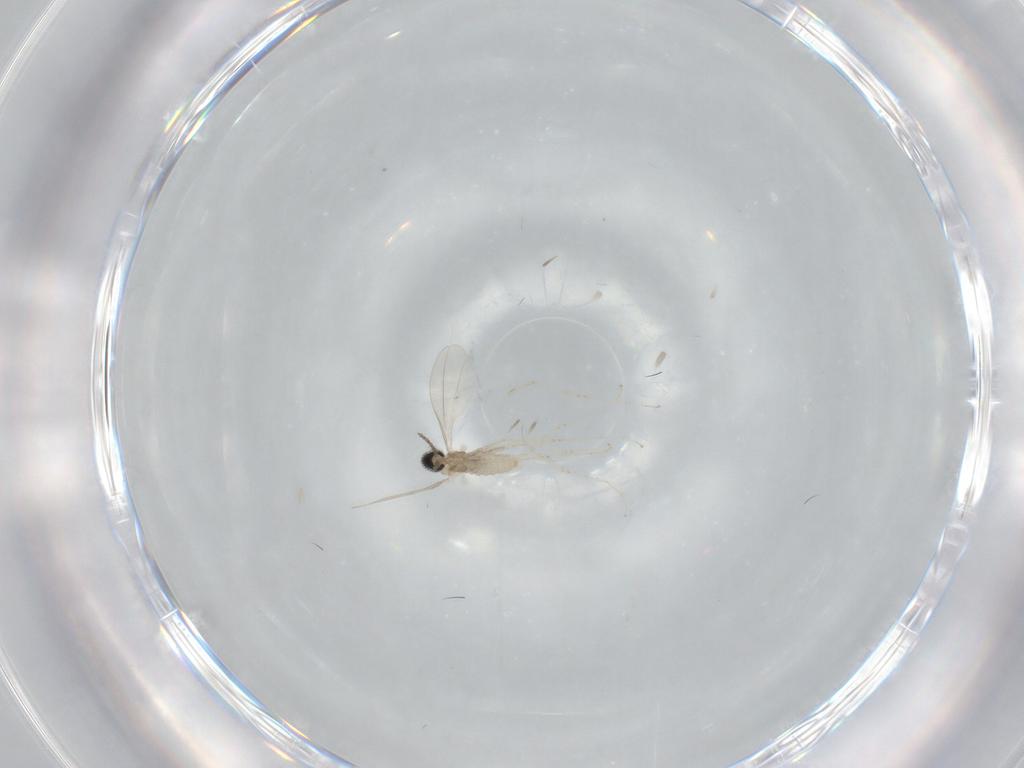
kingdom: Animalia
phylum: Arthropoda
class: Insecta
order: Diptera
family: Cecidomyiidae
